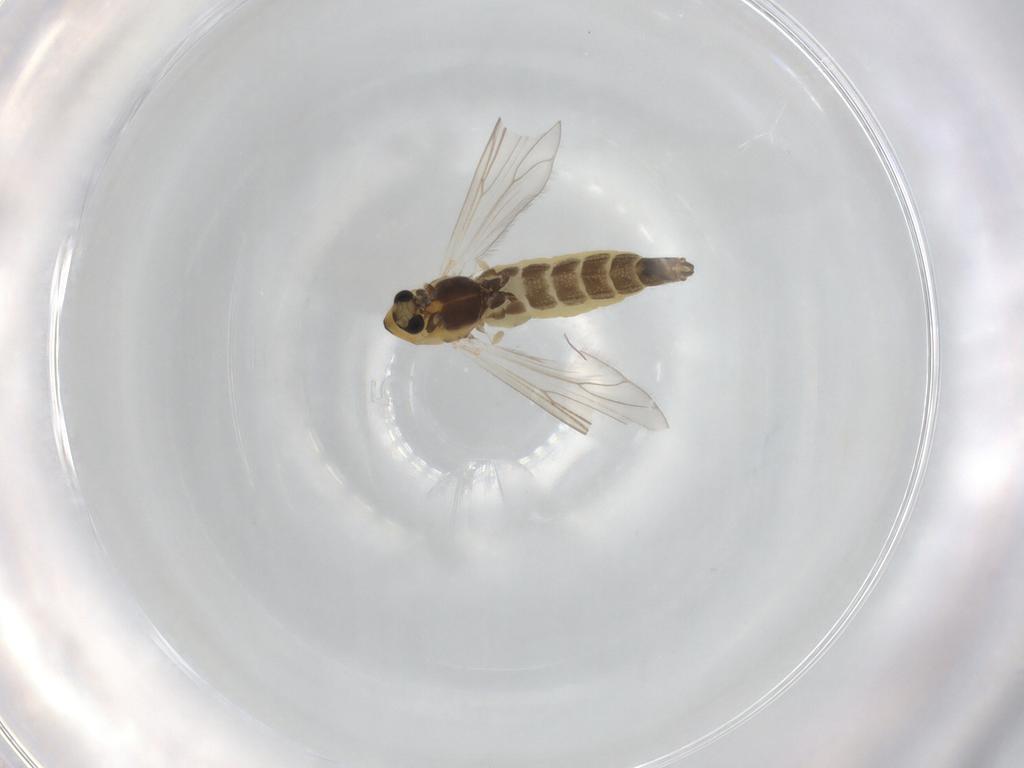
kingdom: Animalia
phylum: Arthropoda
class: Insecta
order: Diptera
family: Chironomidae
